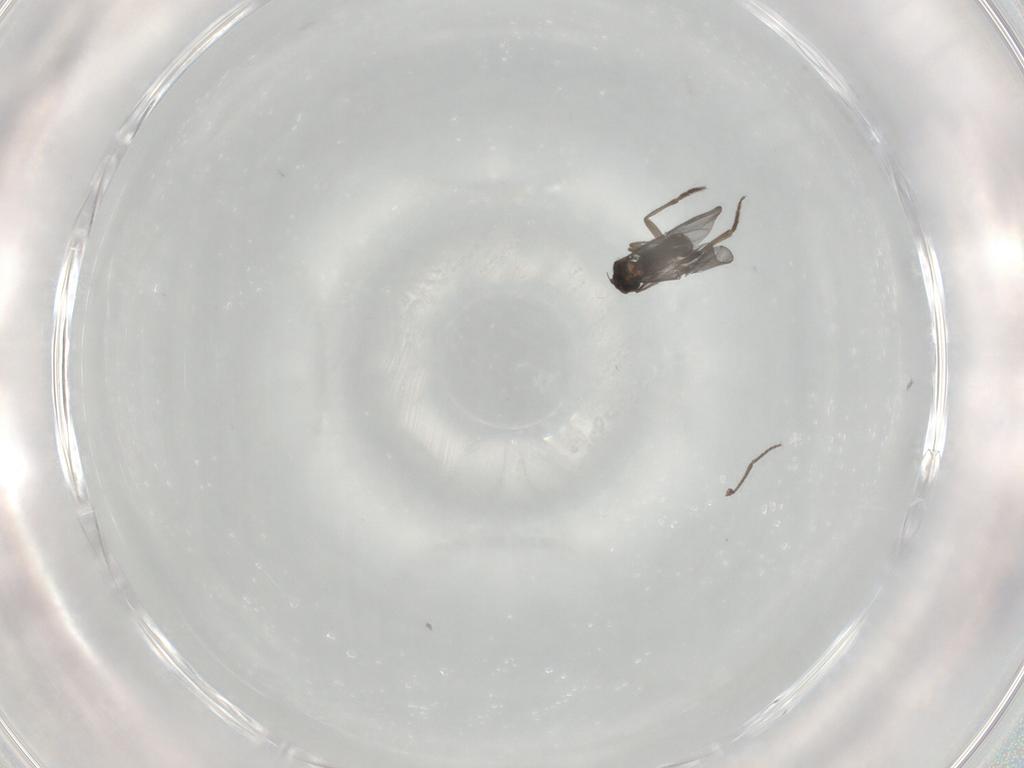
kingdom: Animalia
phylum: Arthropoda
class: Insecta
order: Diptera
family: Phoridae
